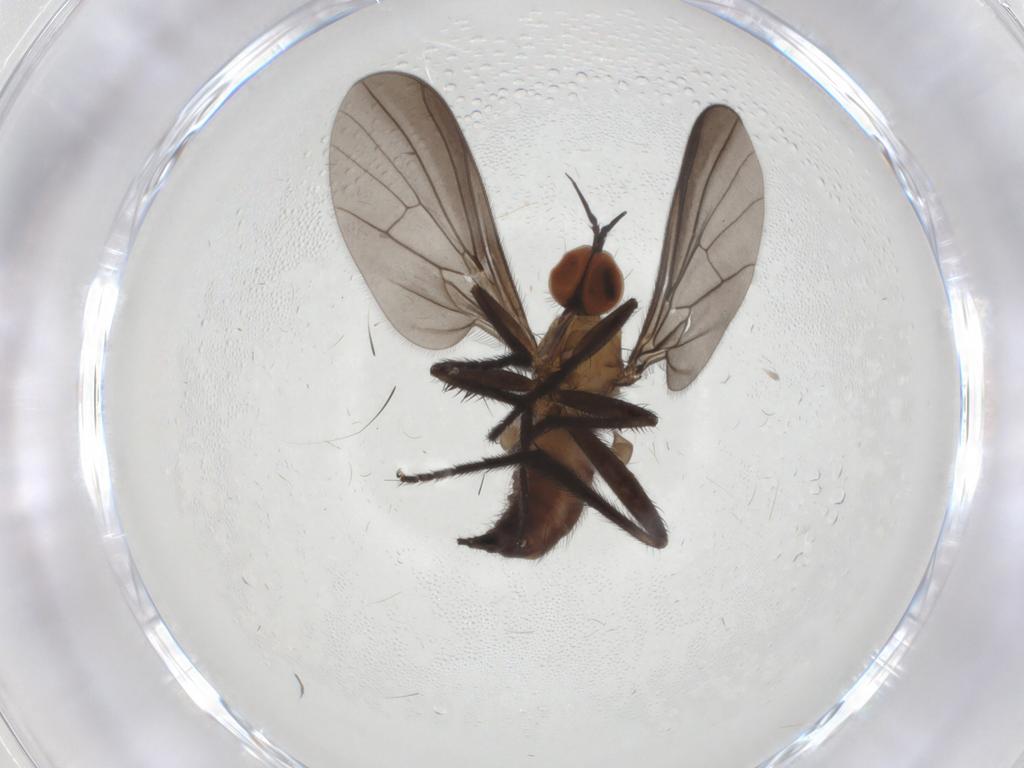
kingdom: Animalia
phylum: Arthropoda
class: Insecta
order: Diptera
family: Empididae
